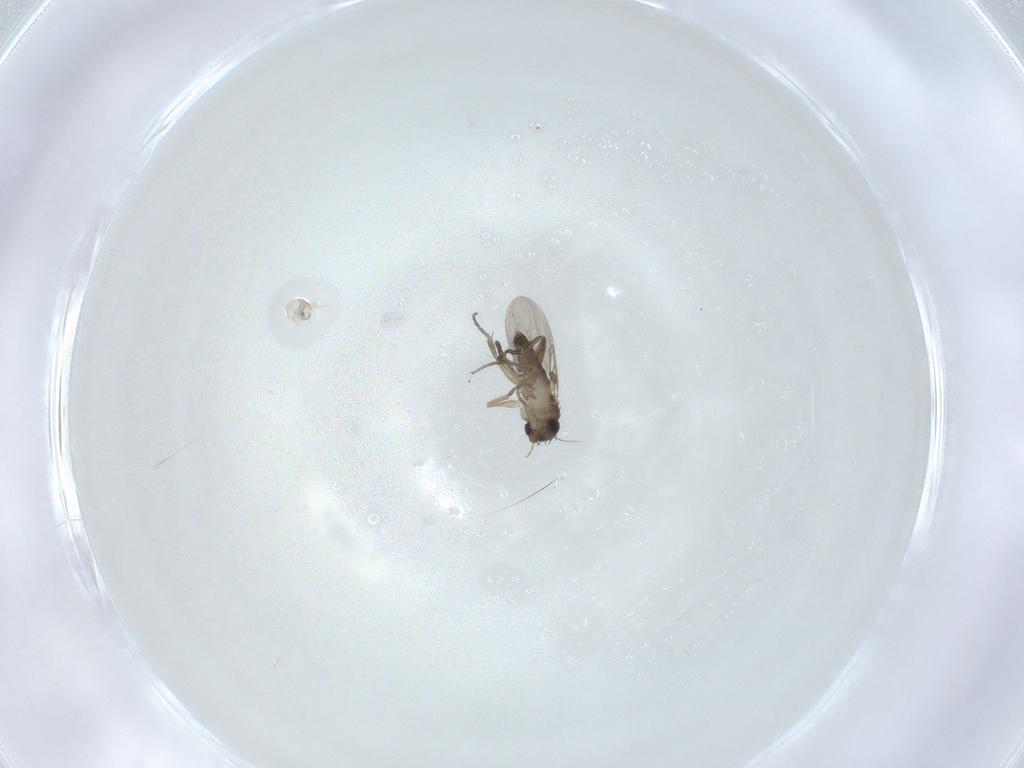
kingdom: Animalia
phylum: Arthropoda
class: Insecta
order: Diptera
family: Phoridae
